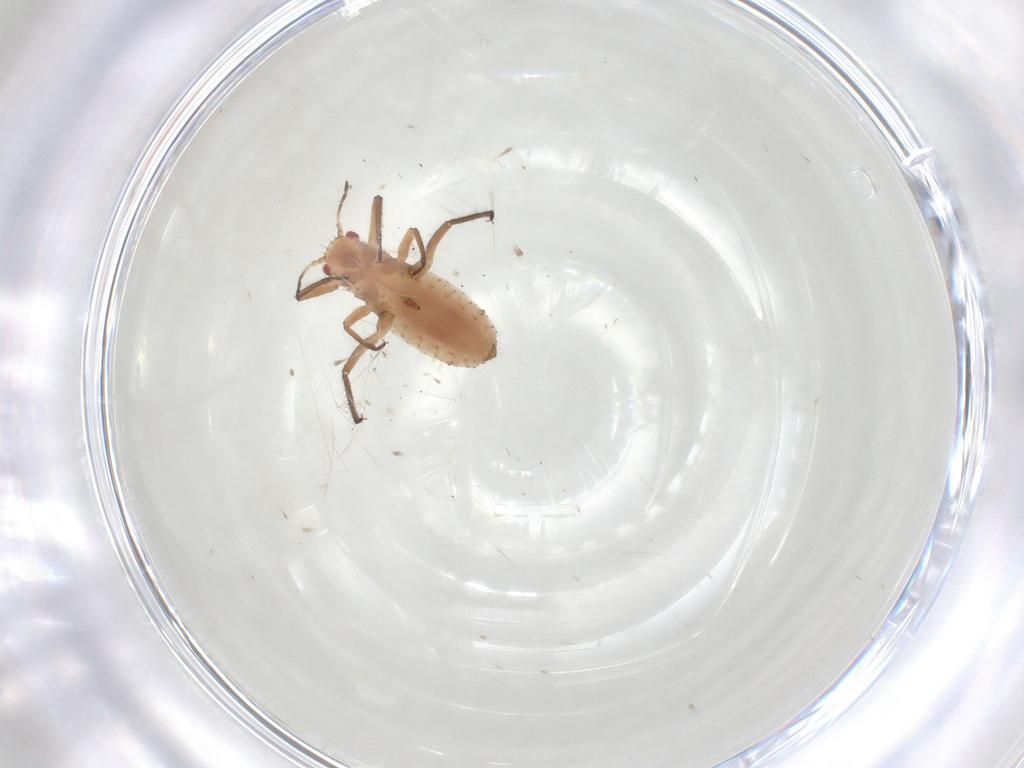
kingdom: Animalia
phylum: Arthropoda
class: Insecta
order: Hemiptera
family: Aphididae
